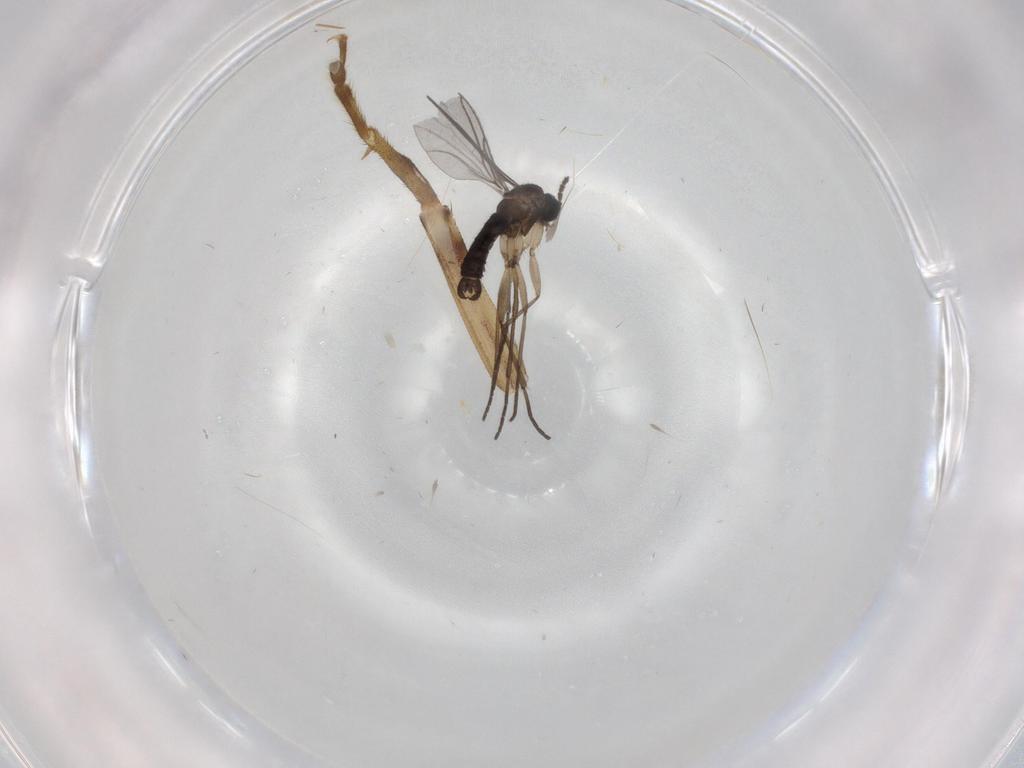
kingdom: Animalia
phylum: Arthropoda
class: Insecta
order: Diptera
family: Sciaridae
